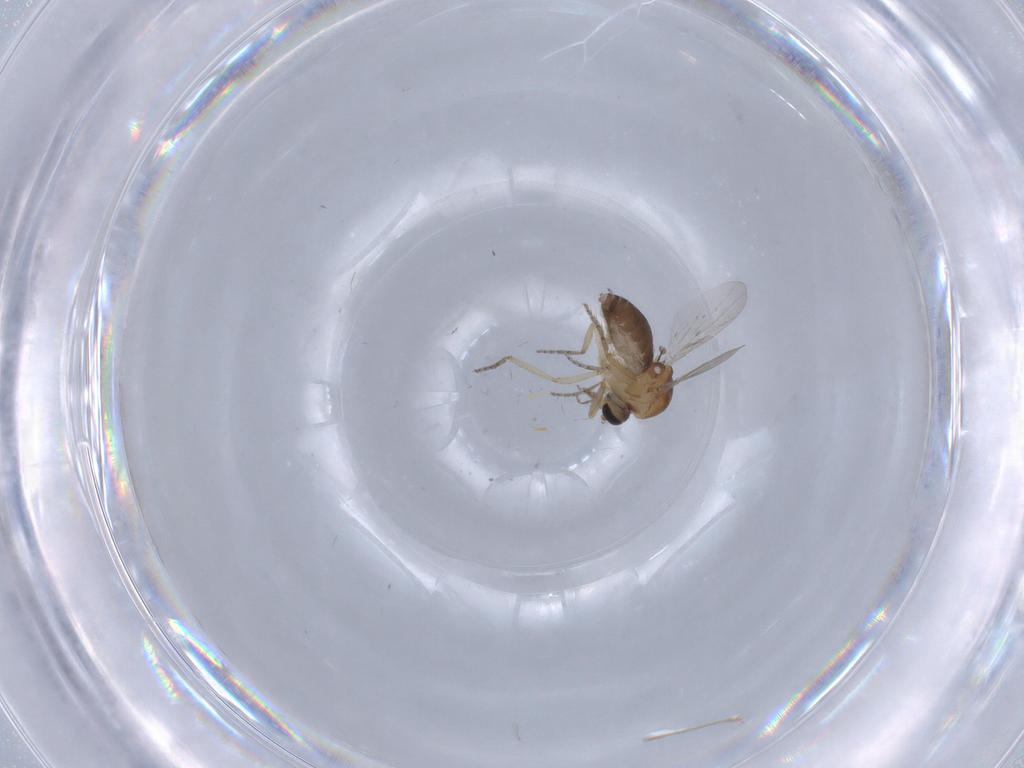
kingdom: Animalia
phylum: Arthropoda
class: Insecta
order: Diptera
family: Ceratopogonidae
